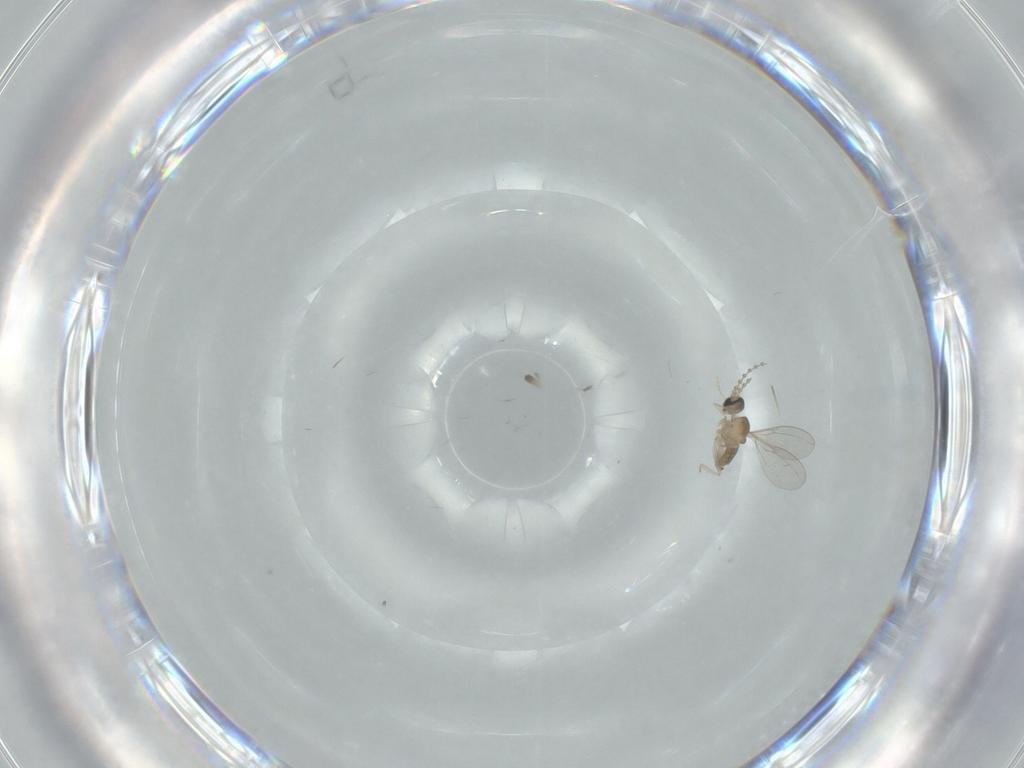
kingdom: Animalia
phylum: Arthropoda
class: Insecta
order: Diptera
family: Cecidomyiidae
